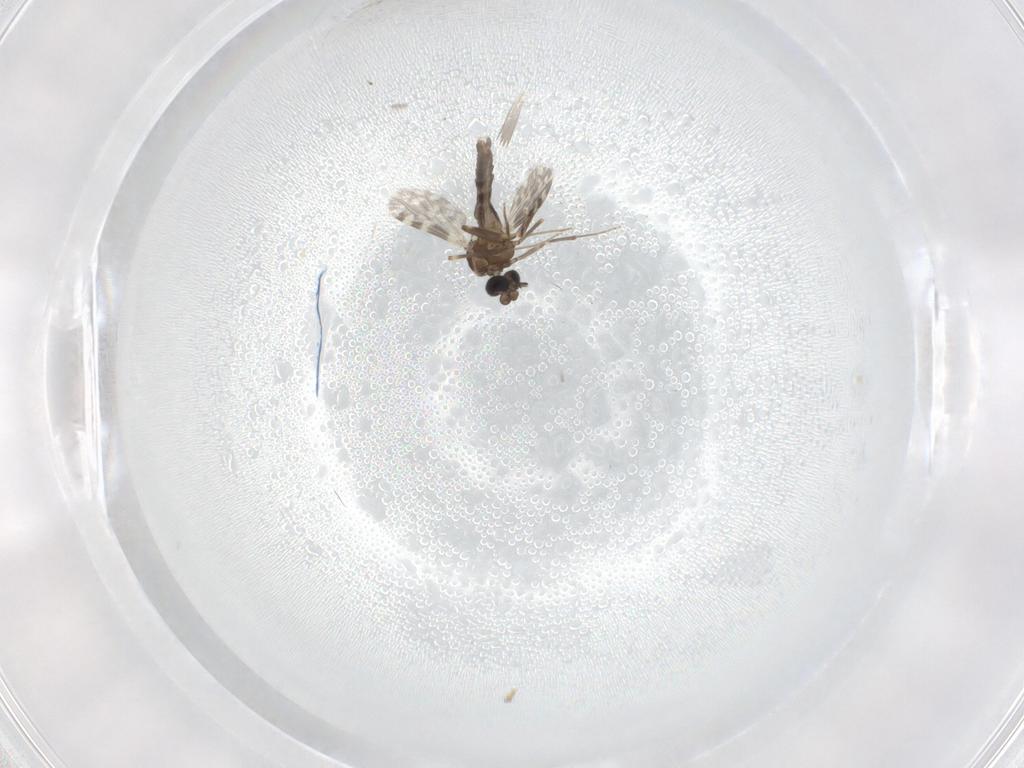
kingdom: Animalia
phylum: Arthropoda
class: Insecta
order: Diptera
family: Ceratopogonidae
